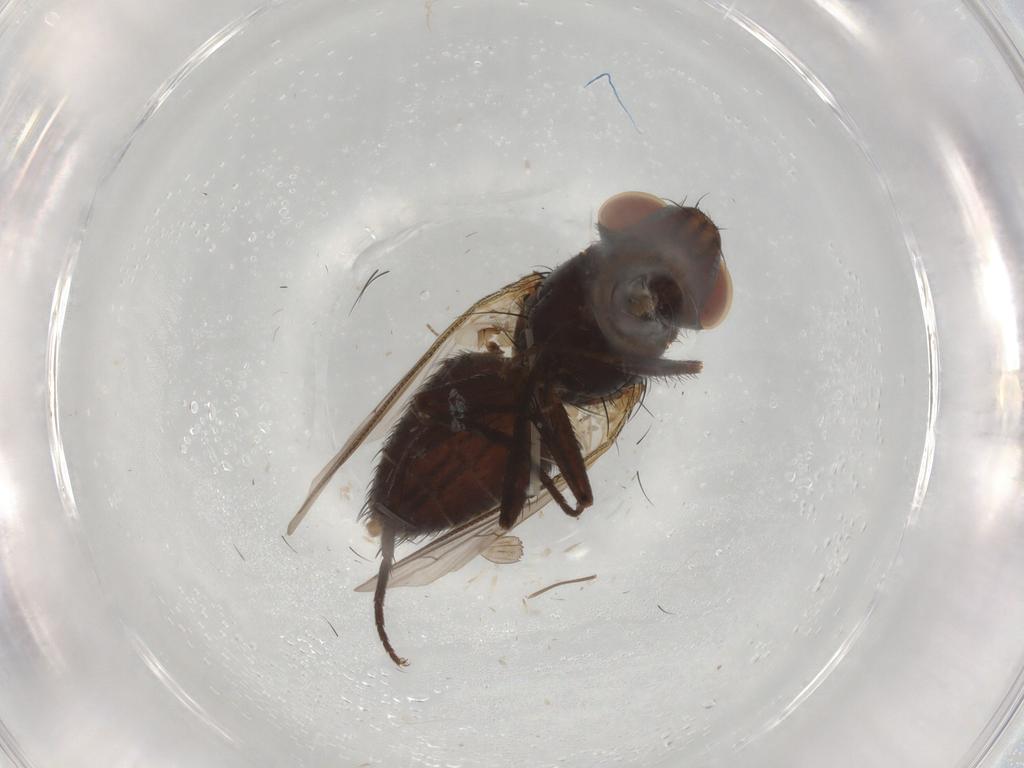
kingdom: Animalia
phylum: Arthropoda
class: Insecta
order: Diptera
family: Sarcophagidae
